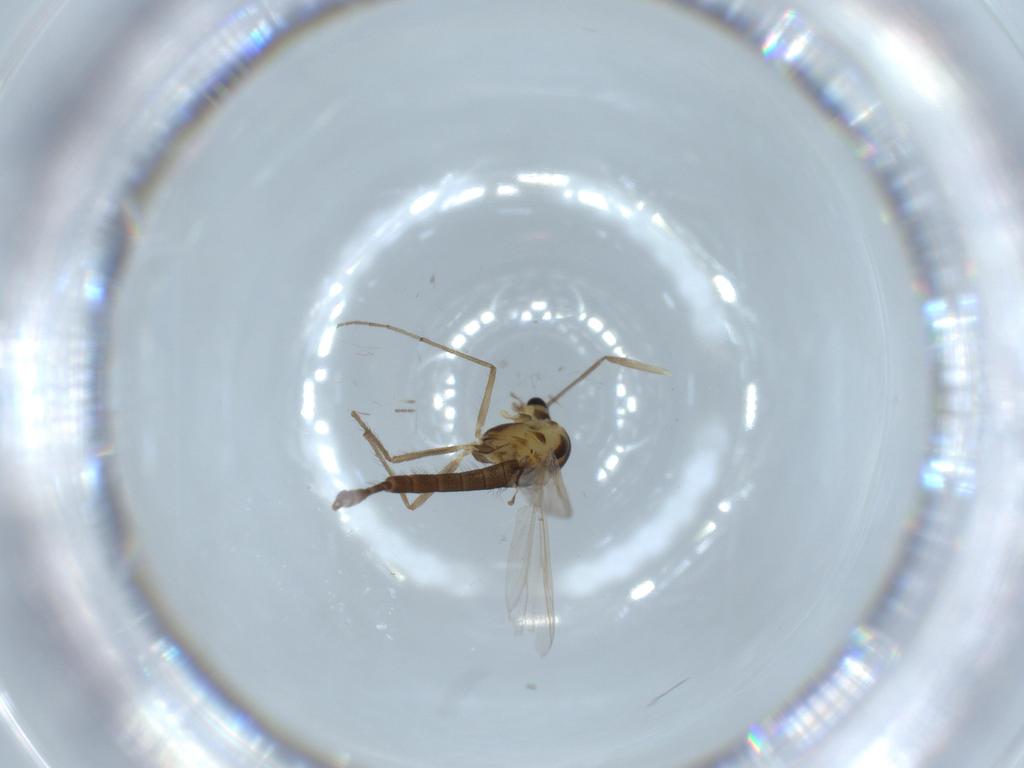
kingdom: Animalia
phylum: Arthropoda
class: Insecta
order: Diptera
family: Chironomidae
